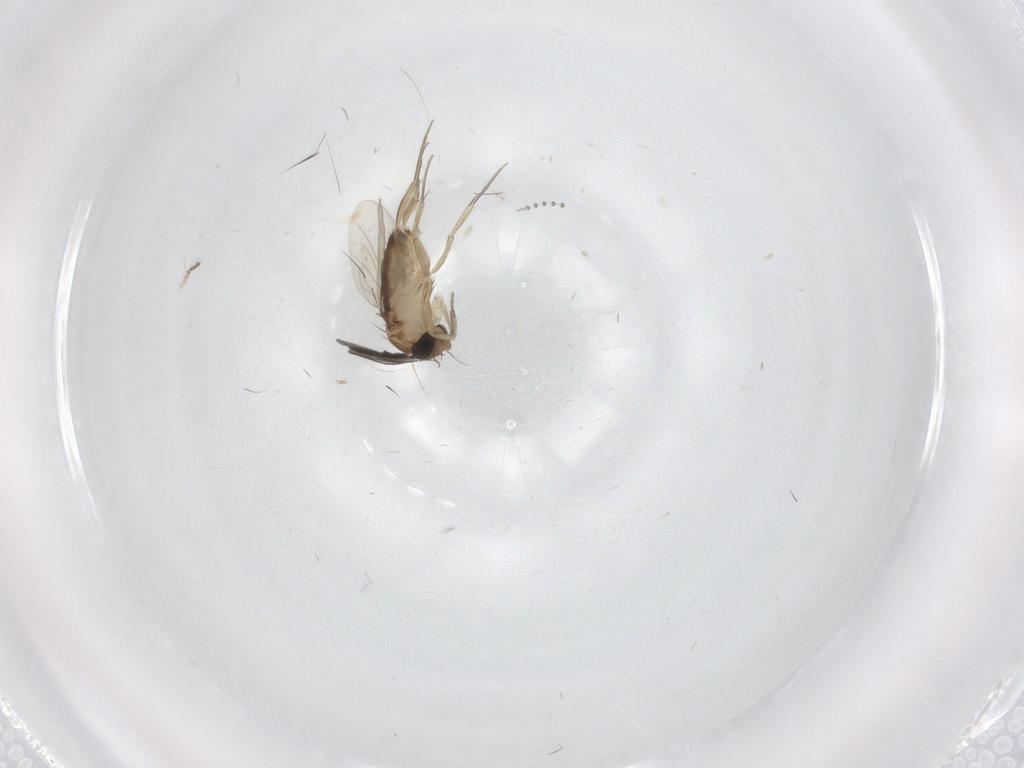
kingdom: Animalia
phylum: Arthropoda
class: Insecta
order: Diptera
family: Phoridae
